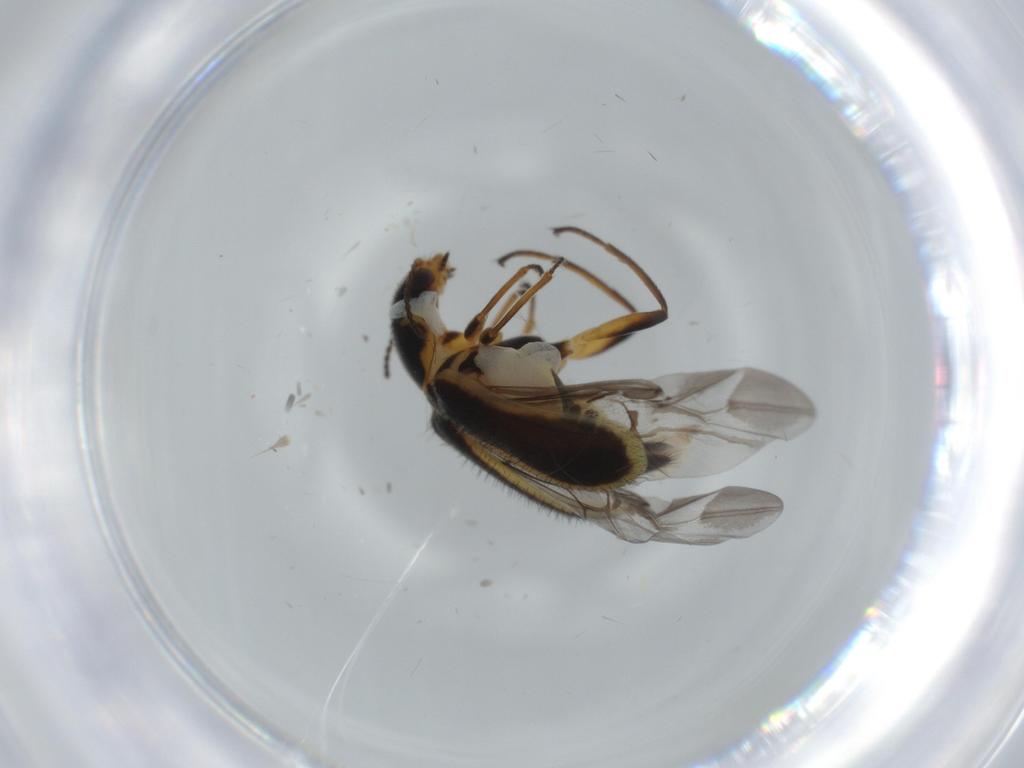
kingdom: Animalia
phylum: Arthropoda
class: Insecta
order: Coleoptera
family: Melyridae
